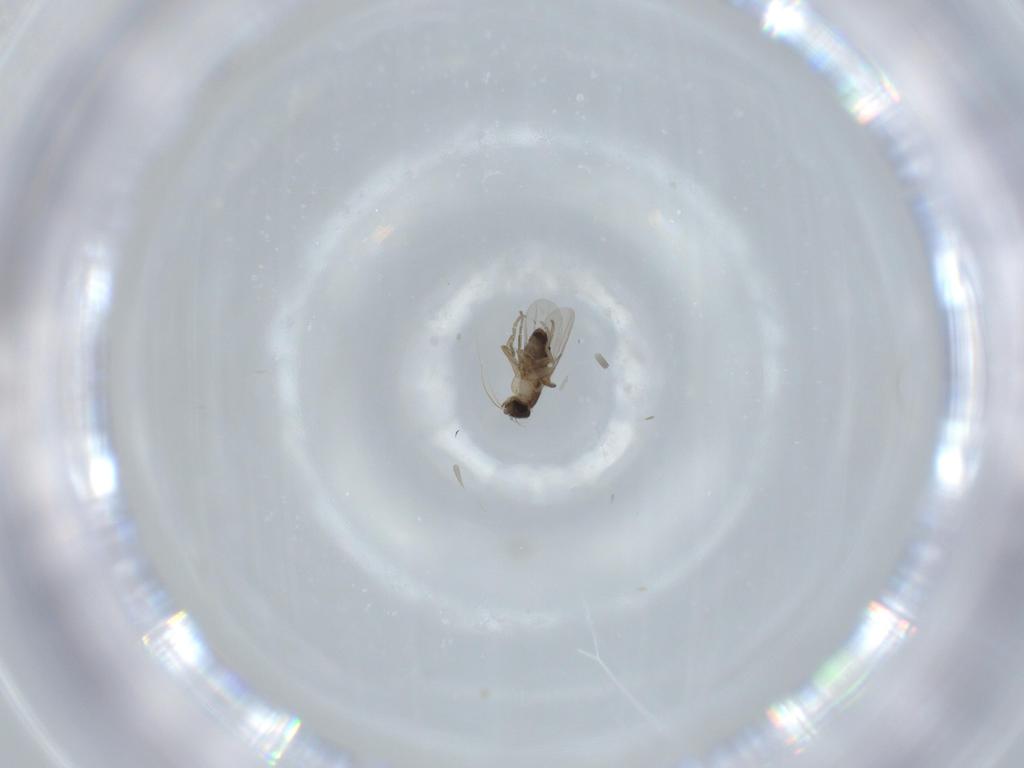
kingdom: Animalia
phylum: Arthropoda
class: Insecta
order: Diptera
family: Phoridae
